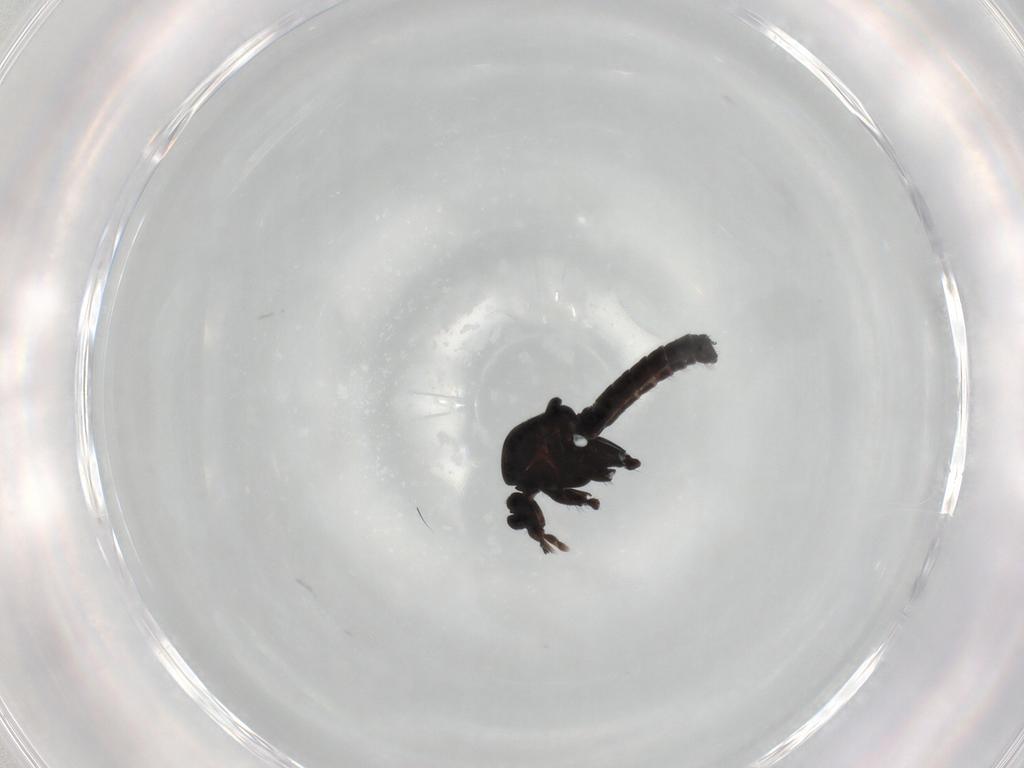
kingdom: Animalia
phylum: Arthropoda
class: Insecta
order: Diptera
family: Ceratopogonidae
